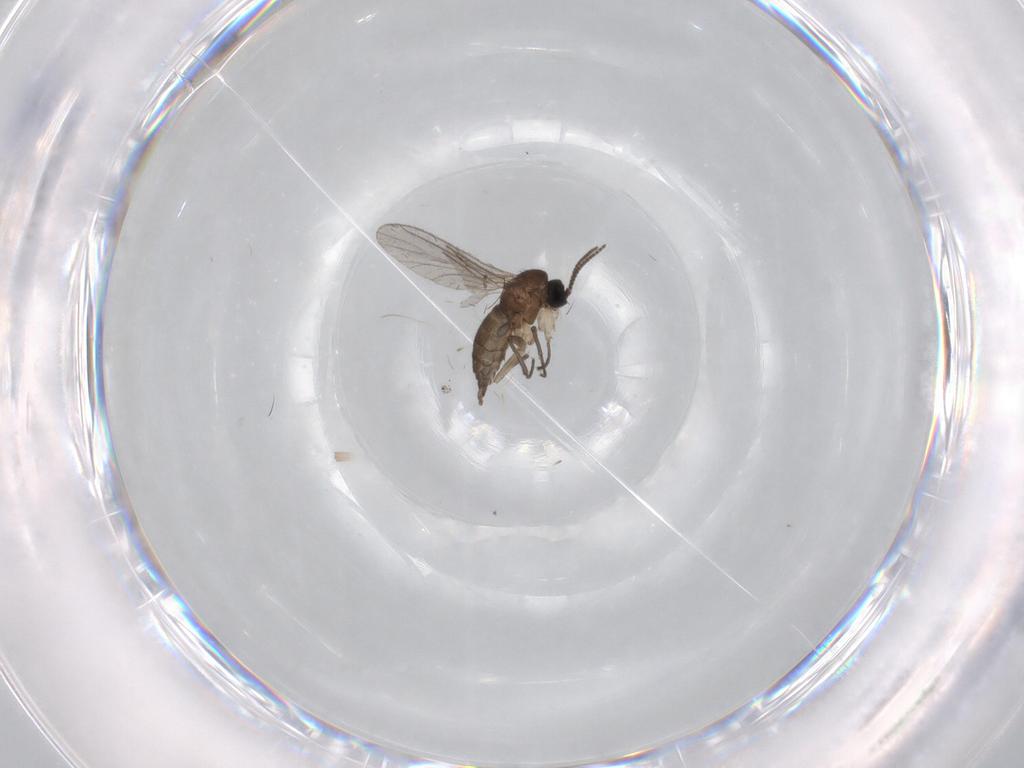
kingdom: Animalia
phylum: Arthropoda
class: Insecta
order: Diptera
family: Sciaridae
